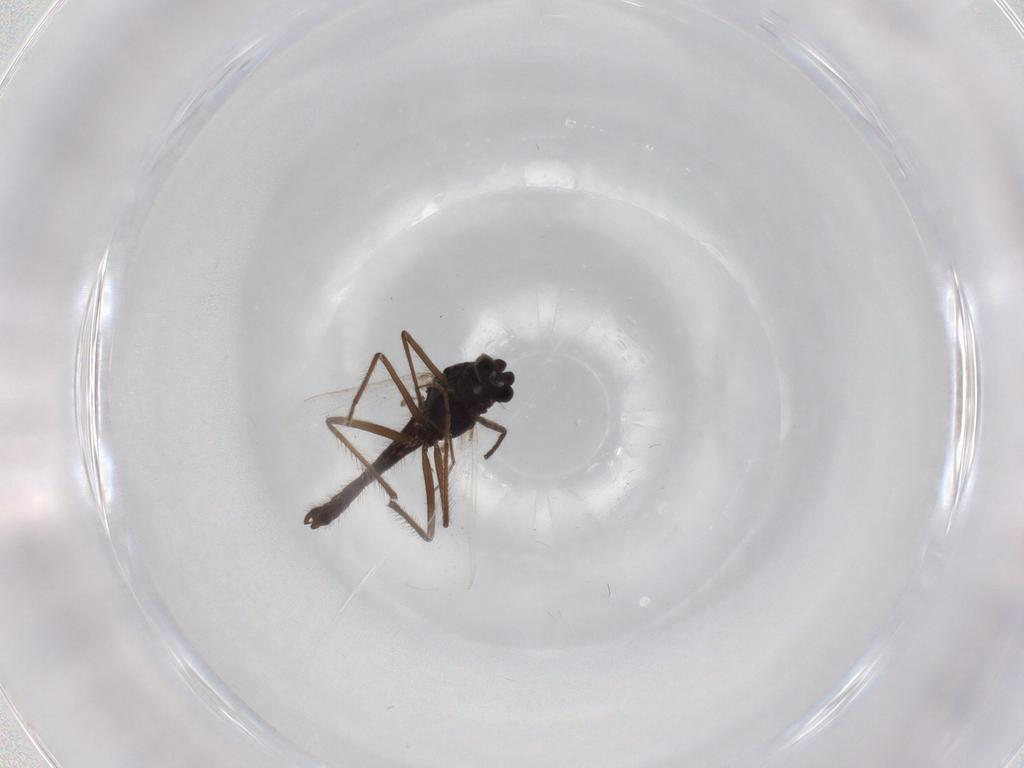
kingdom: Animalia
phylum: Arthropoda
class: Insecta
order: Diptera
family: Chironomidae
